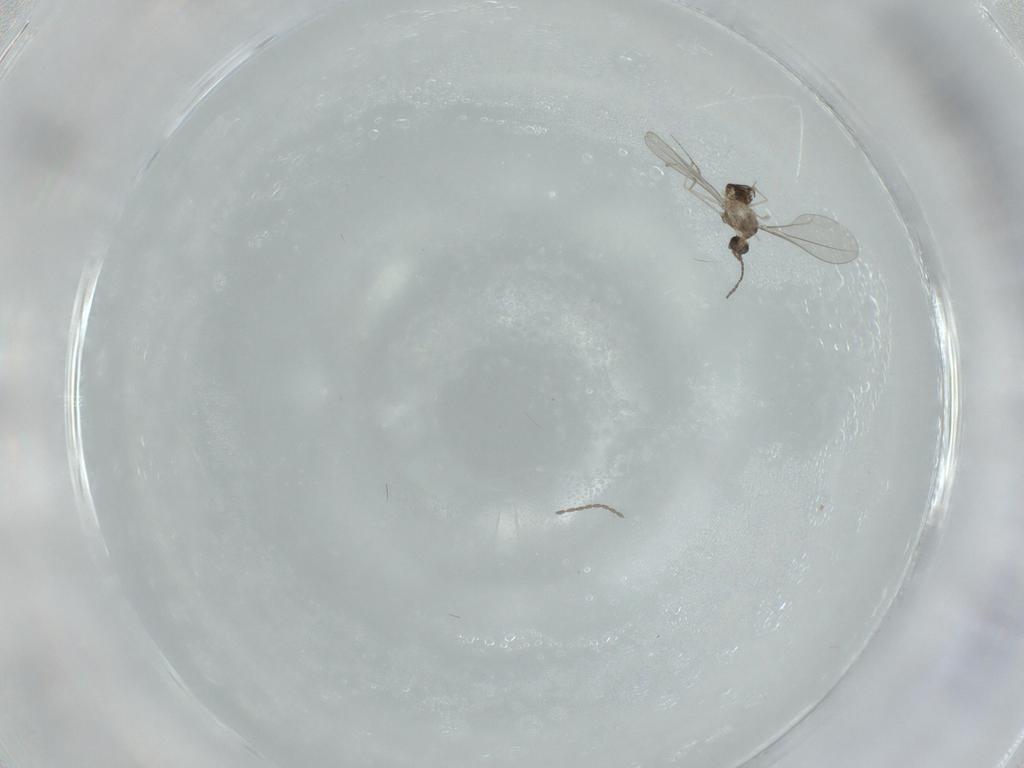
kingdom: Animalia
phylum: Arthropoda
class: Insecta
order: Diptera
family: Cecidomyiidae
